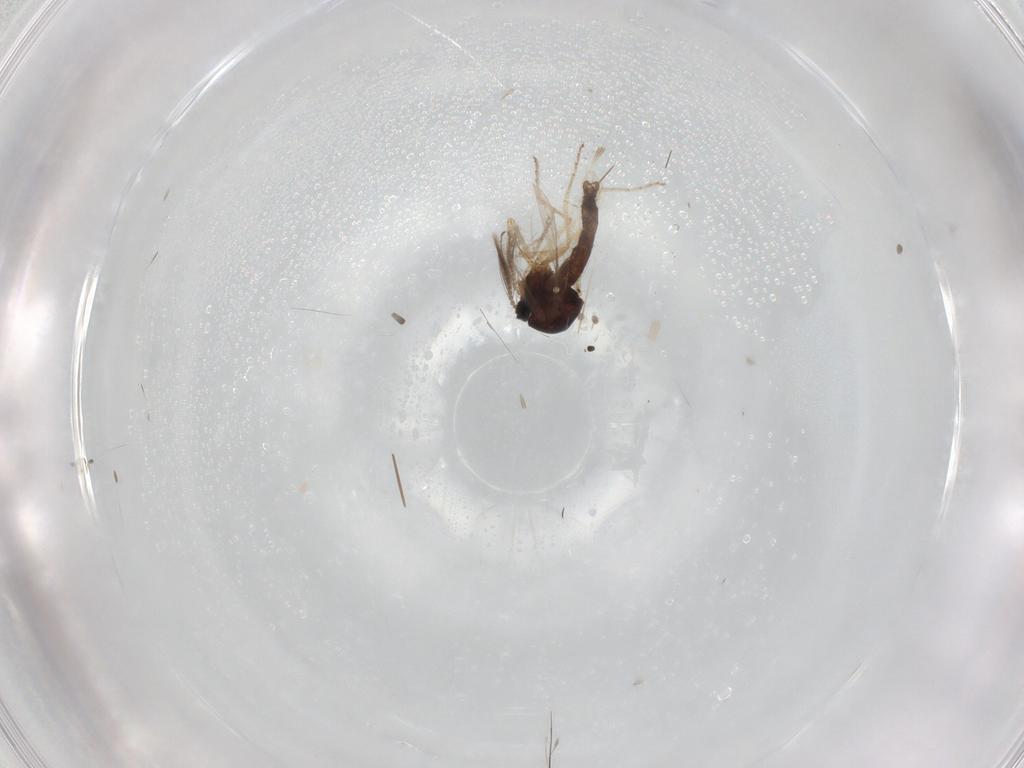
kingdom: Animalia
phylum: Arthropoda
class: Insecta
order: Diptera
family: Ceratopogonidae
